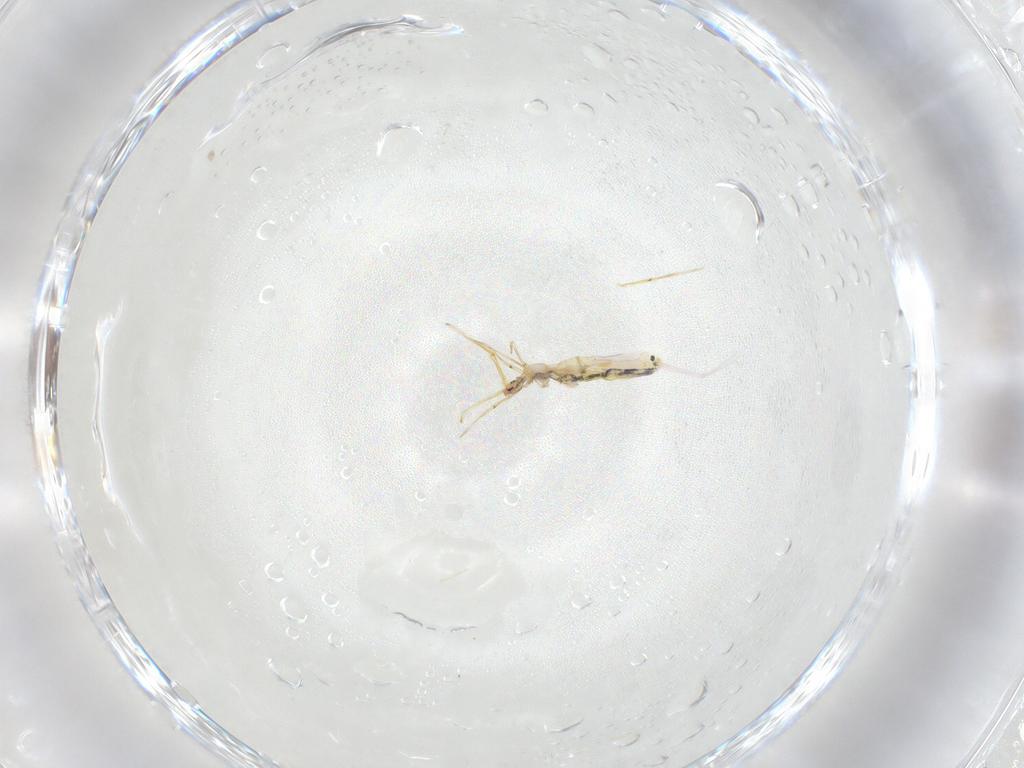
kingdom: Animalia
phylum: Arthropoda
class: Collembola
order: Entomobryomorpha
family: Entomobryidae
